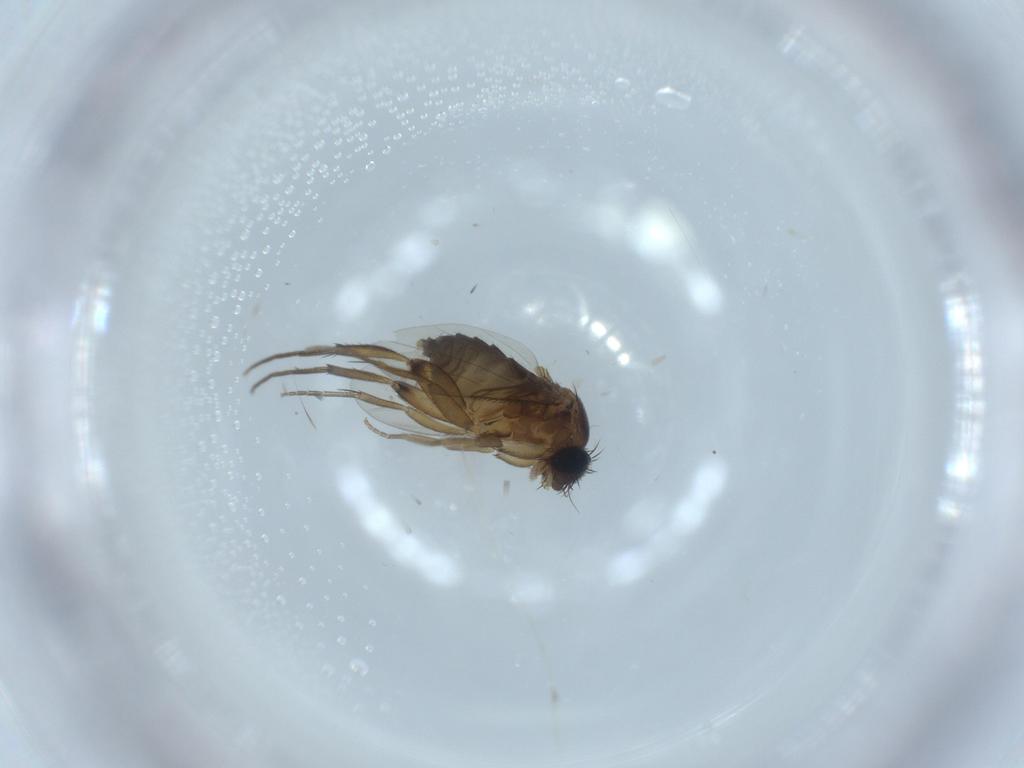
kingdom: Animalia
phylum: Arthropoda
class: Insecta
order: Diptera
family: Phoridae
